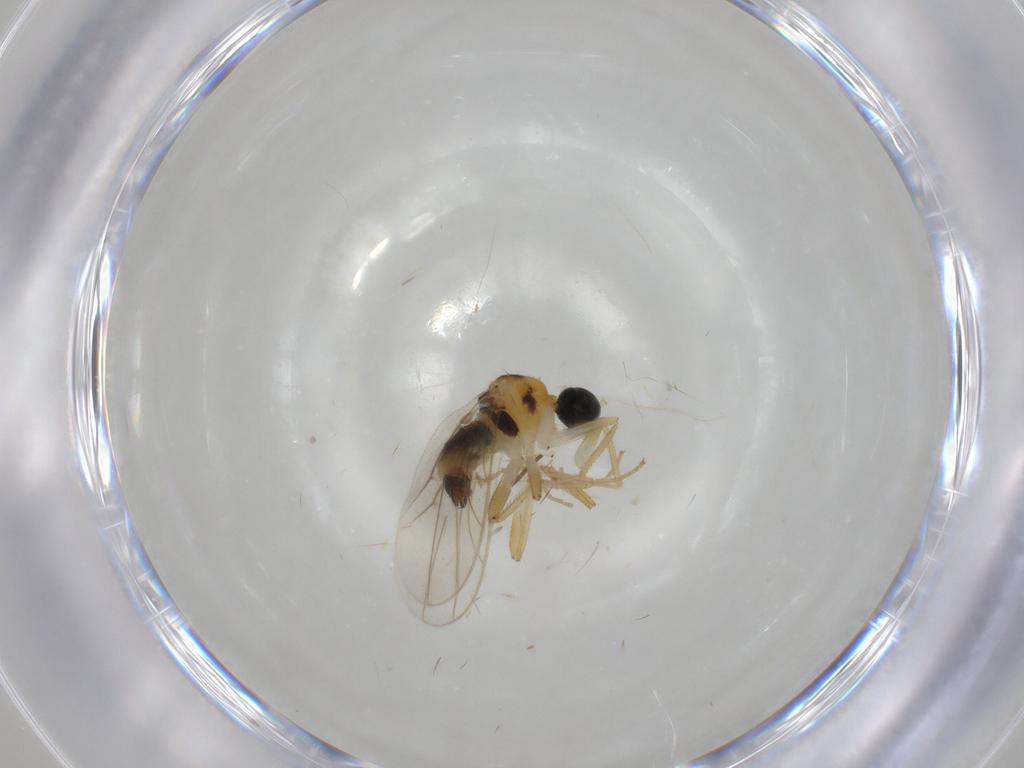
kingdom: Animalia
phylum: Arthropoda
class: Insecta
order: Diptera
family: Hybotidae
